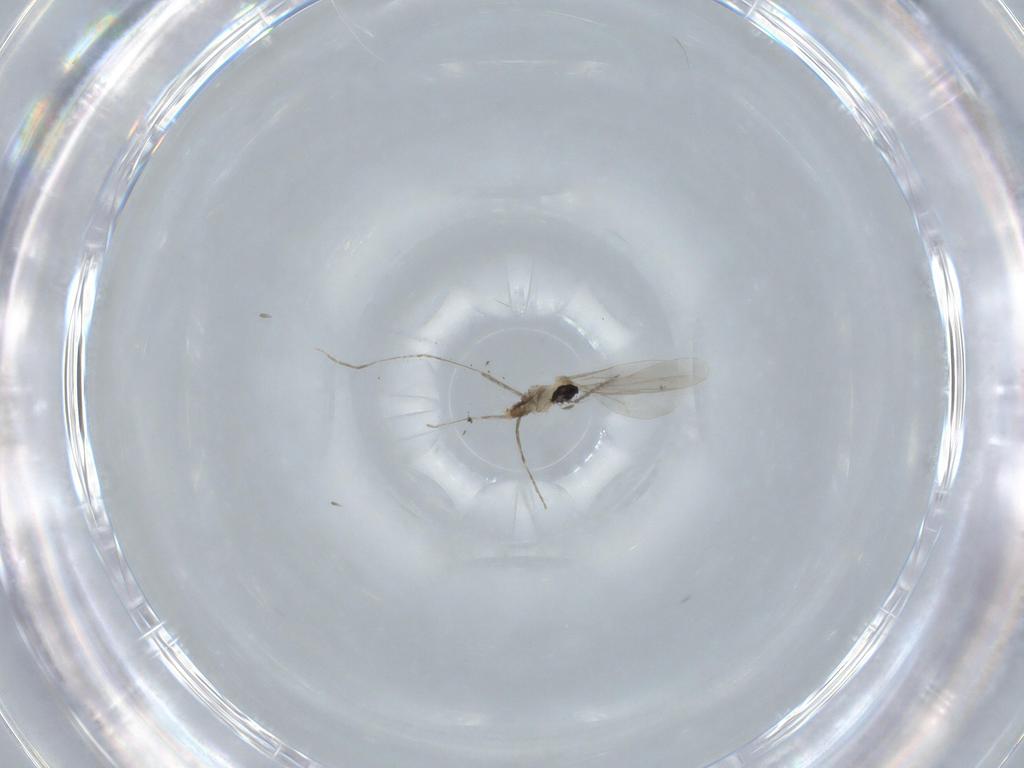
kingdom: Animalia
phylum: Arthropoda
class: Insecta
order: Diptera
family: Cecidomyiidae
